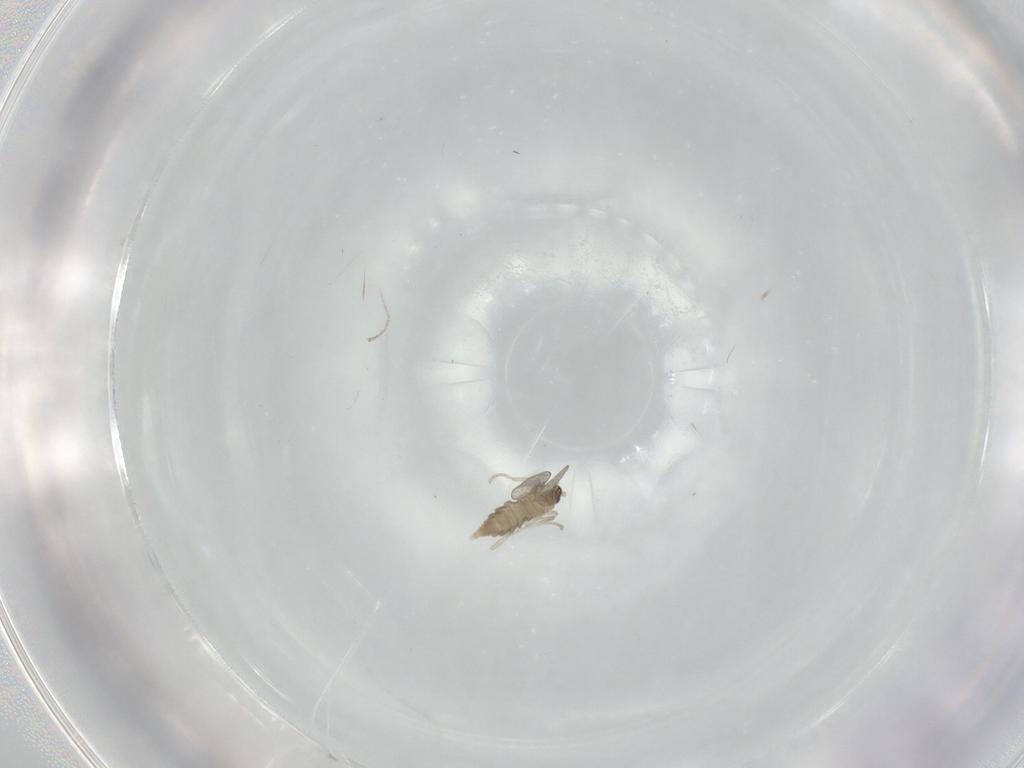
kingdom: Animalia
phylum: Arthropoda
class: Insecta
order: Diptera
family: Cecidomyiidae
